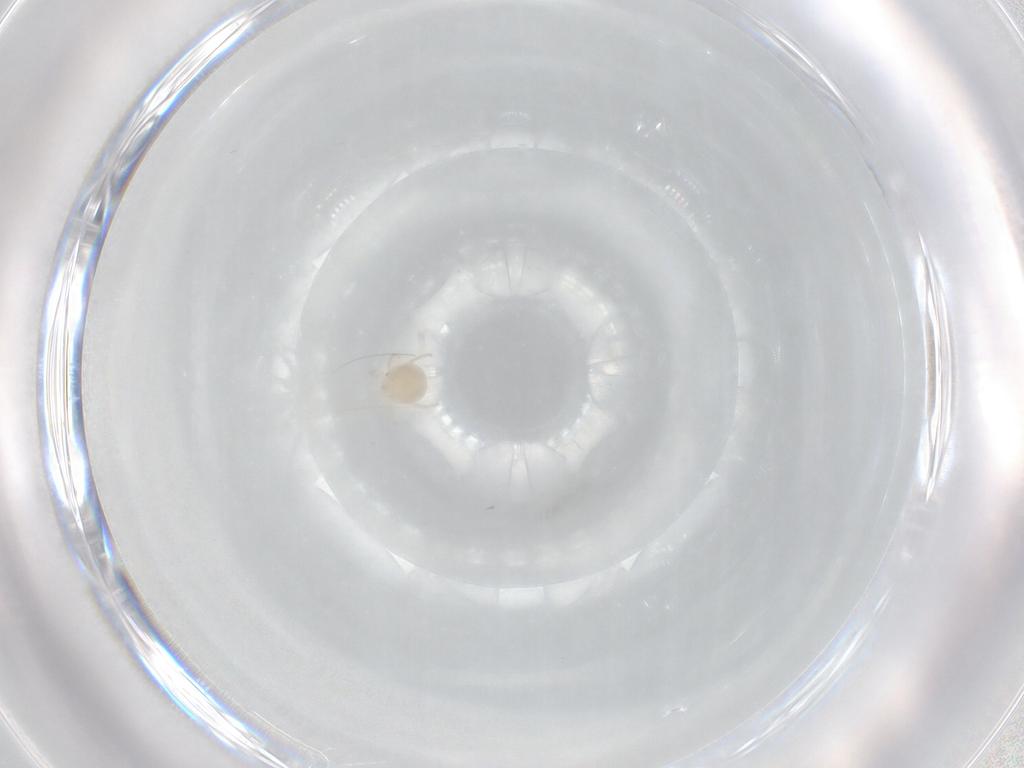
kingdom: Animalia
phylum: Arthropoda
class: Arachnida
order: Trombidiformes
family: Sperchontidae
